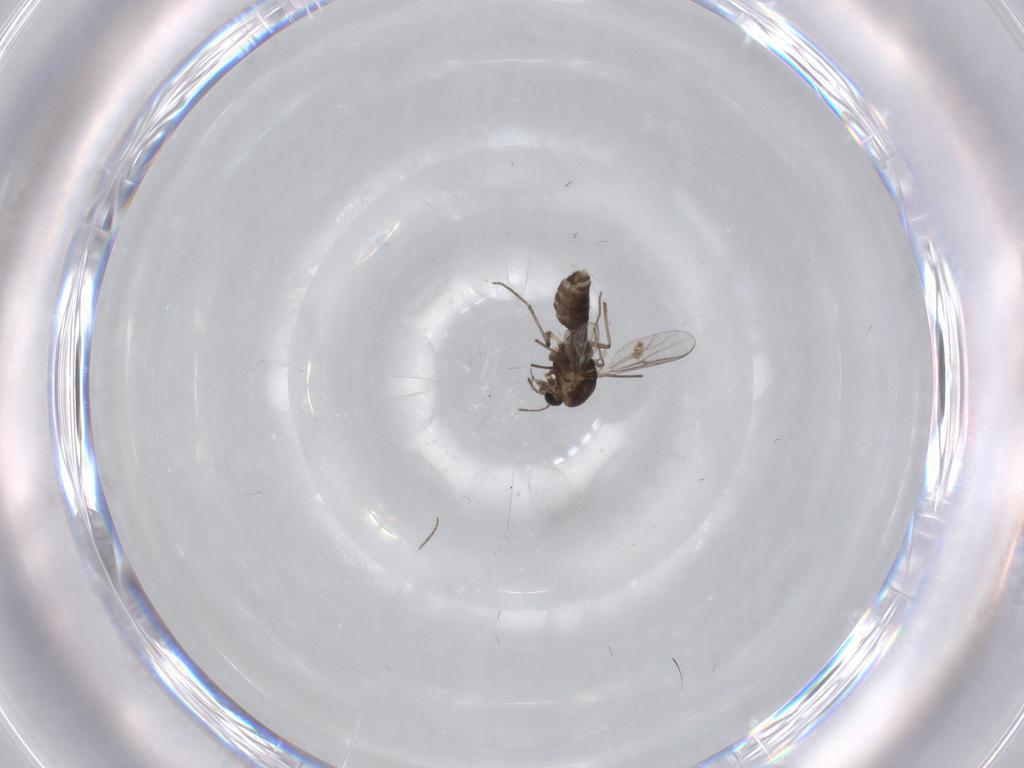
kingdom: Animalia
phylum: Arthropoda
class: Insecta
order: Diptera
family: Chironomidae
